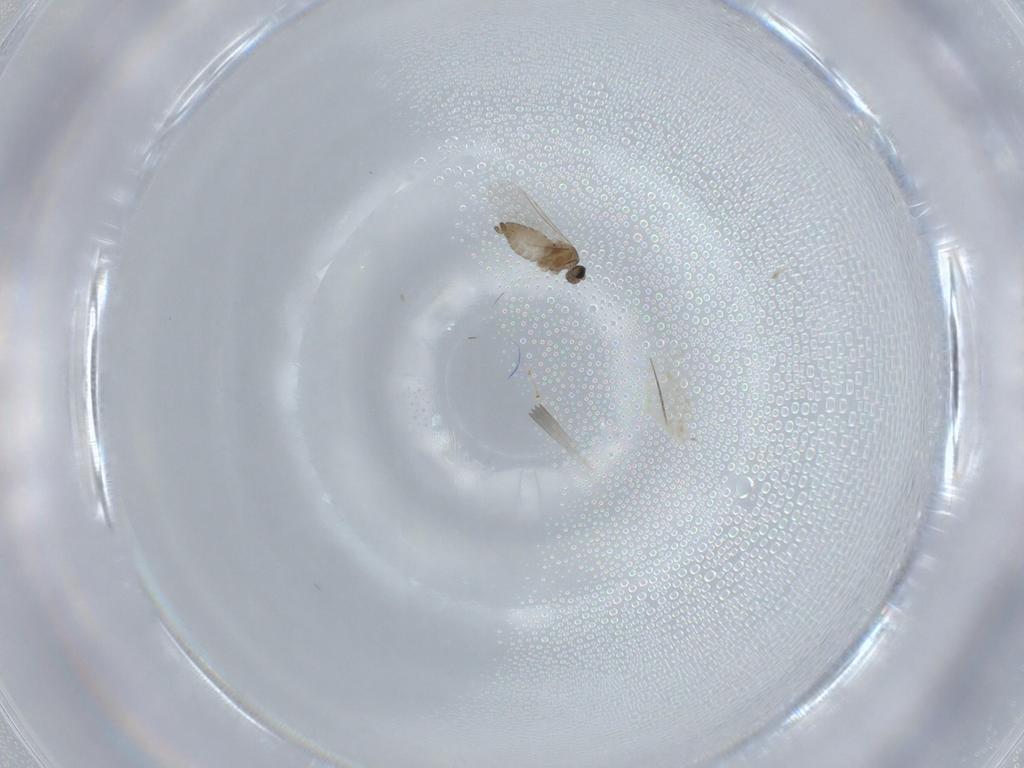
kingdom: Animalia
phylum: Arthropoda
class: Insecta
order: Diptera
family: Cecidomyiidae
